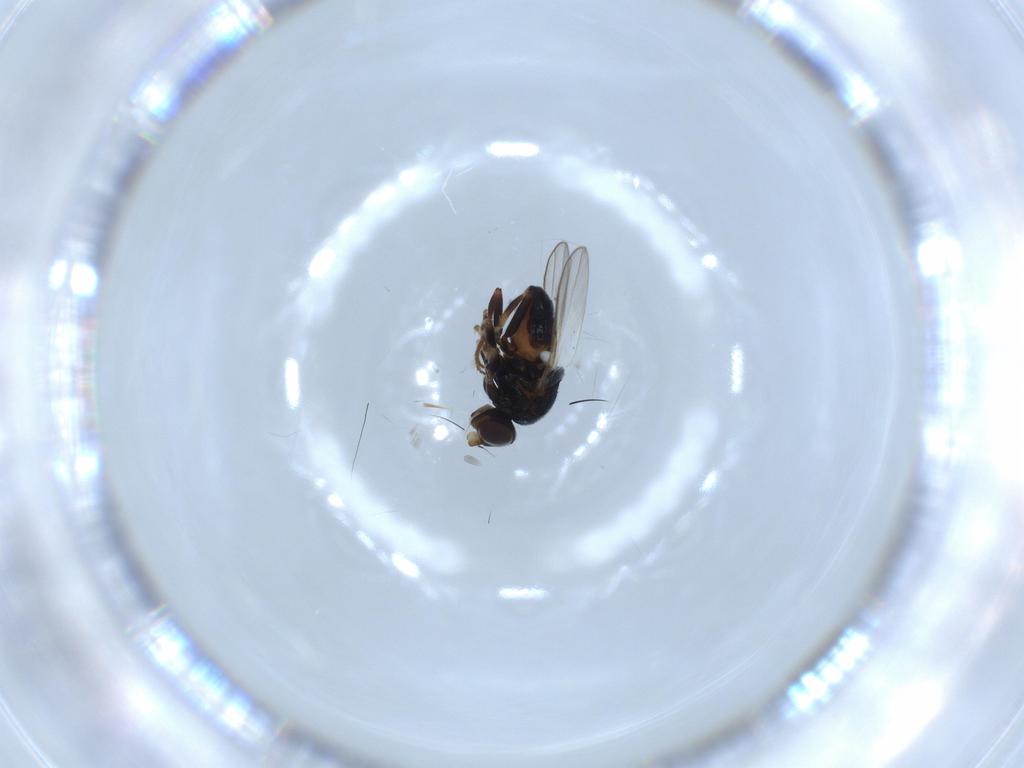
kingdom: Animalia
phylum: Arthropoda
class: Insecta
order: Diptera
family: Chloropidae
